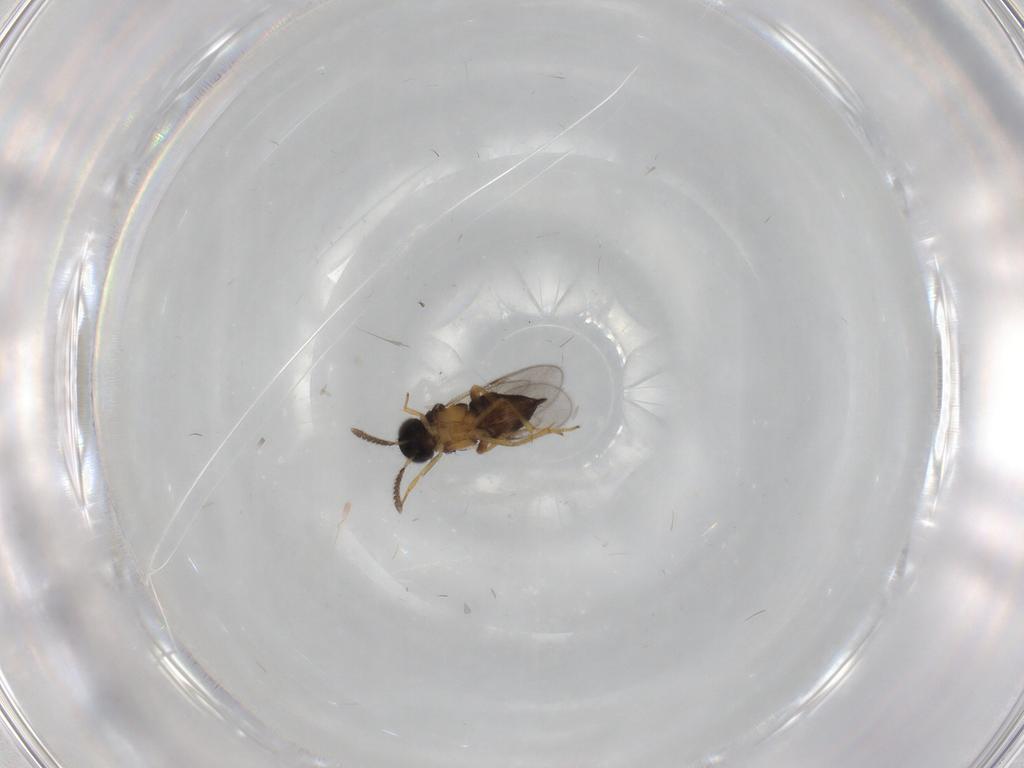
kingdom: Animalia
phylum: Arthropoda
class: Insecta
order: Hymenoptera
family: Encyrtidae
